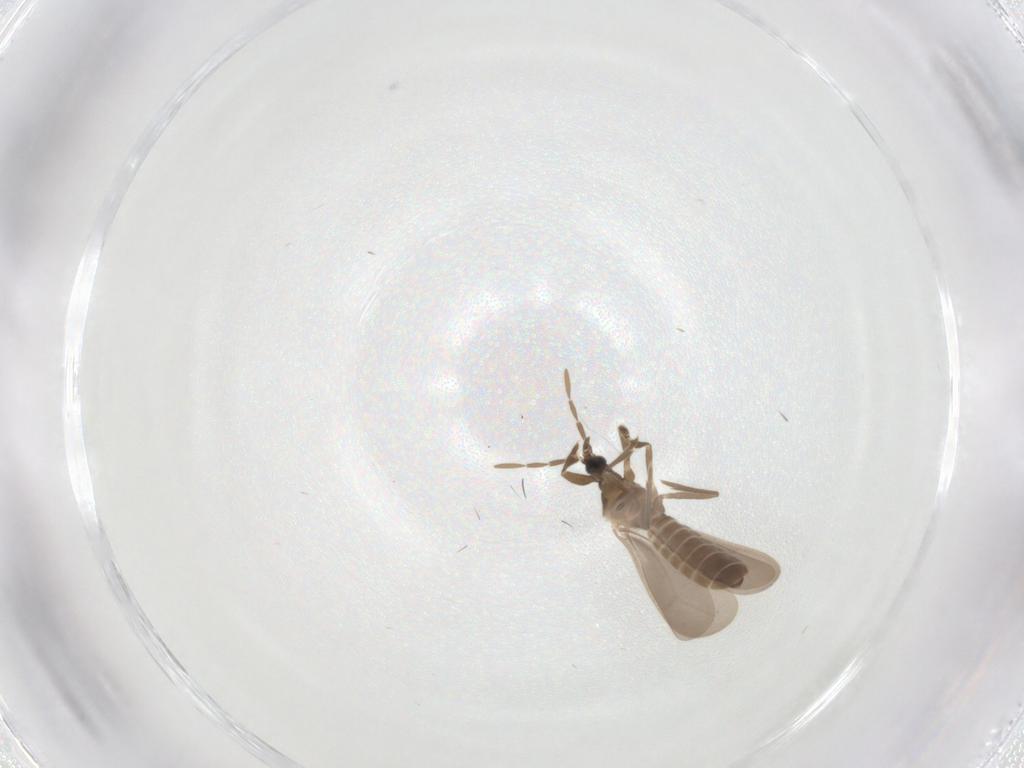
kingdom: Animalia
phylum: Arthropoda
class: Insecta
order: Hemiptera
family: Enicocephalidae
